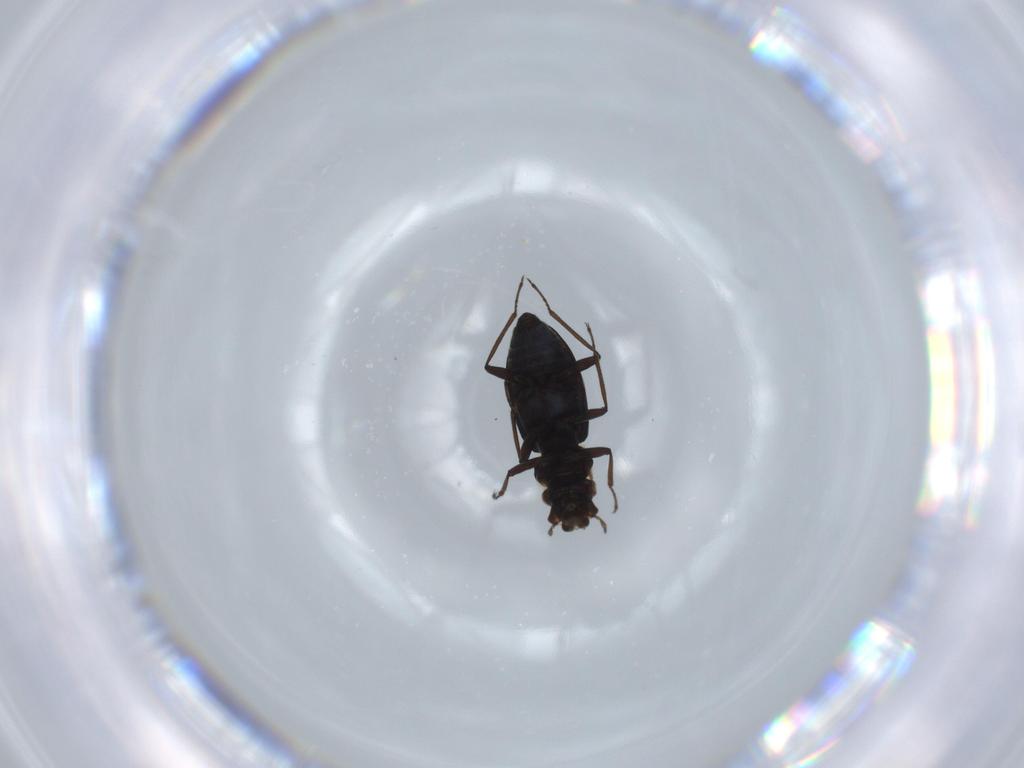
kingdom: Animalia
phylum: Arthropoda
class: Insecta
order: Coleoptera
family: Hydraenidae
